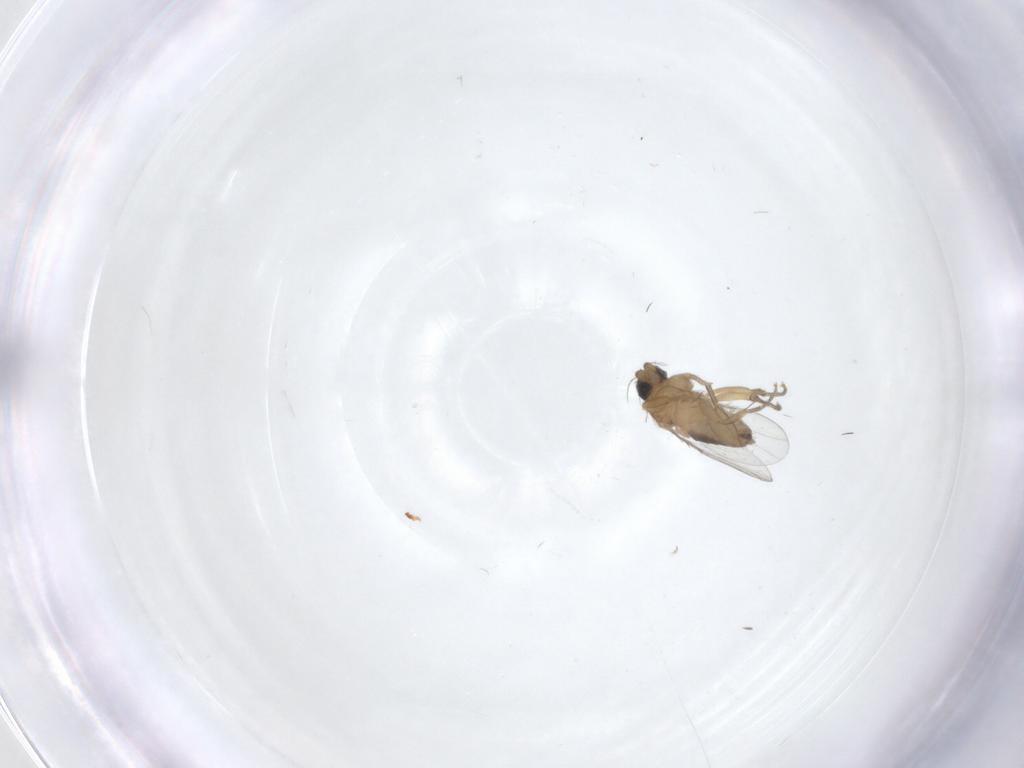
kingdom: Animalia
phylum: Arthropoda
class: Insecta
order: Diptera
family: Phoridae
